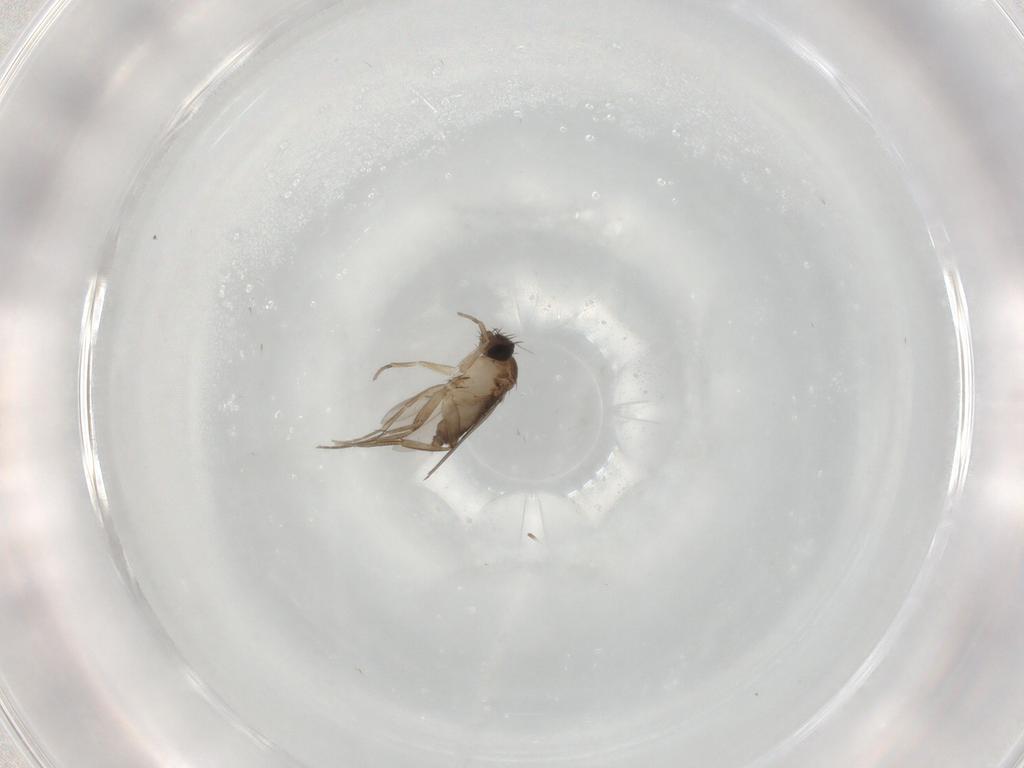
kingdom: Animalia
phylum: Arthropoda
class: Insecta
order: Diptera
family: Phoridae
